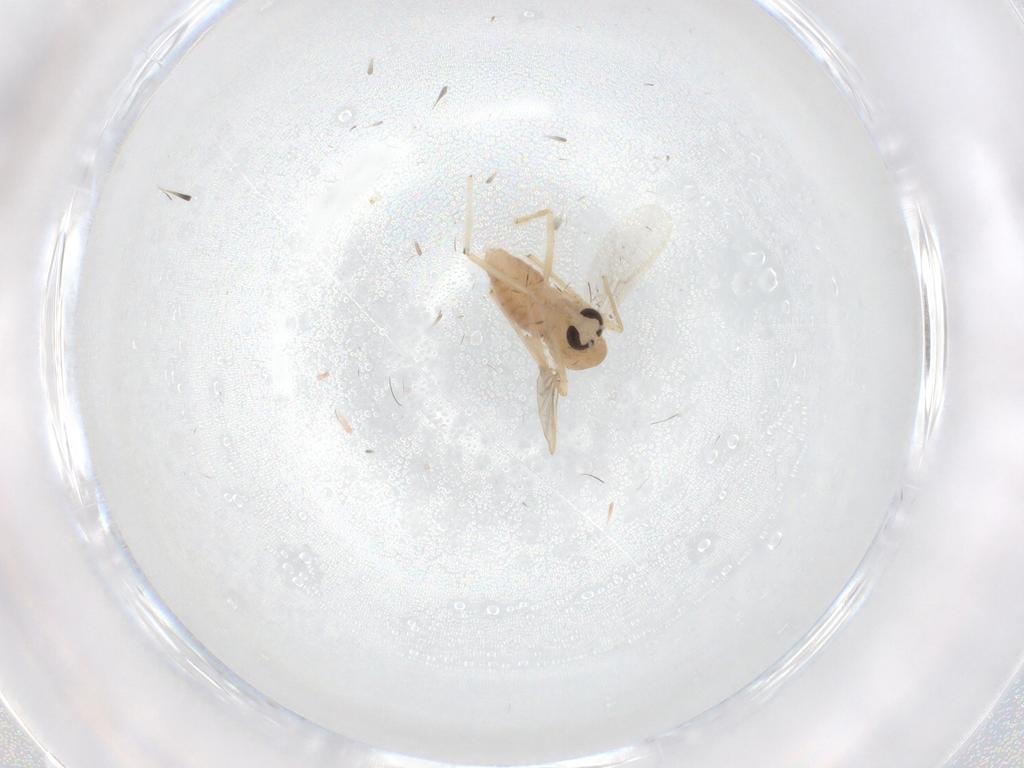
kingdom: Animalia
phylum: Arthropoda
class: Insecta
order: Diptera
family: Chironomidae
